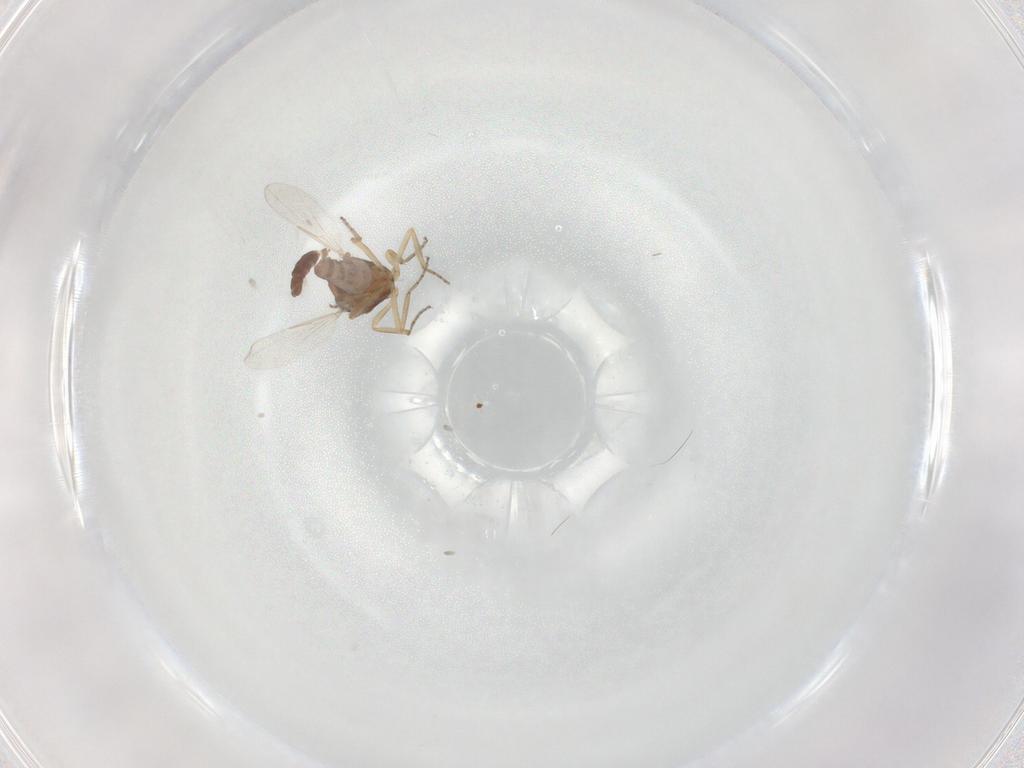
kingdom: Animalia
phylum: Arthropoda
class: Insecta
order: Diptera
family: Hybotidae
